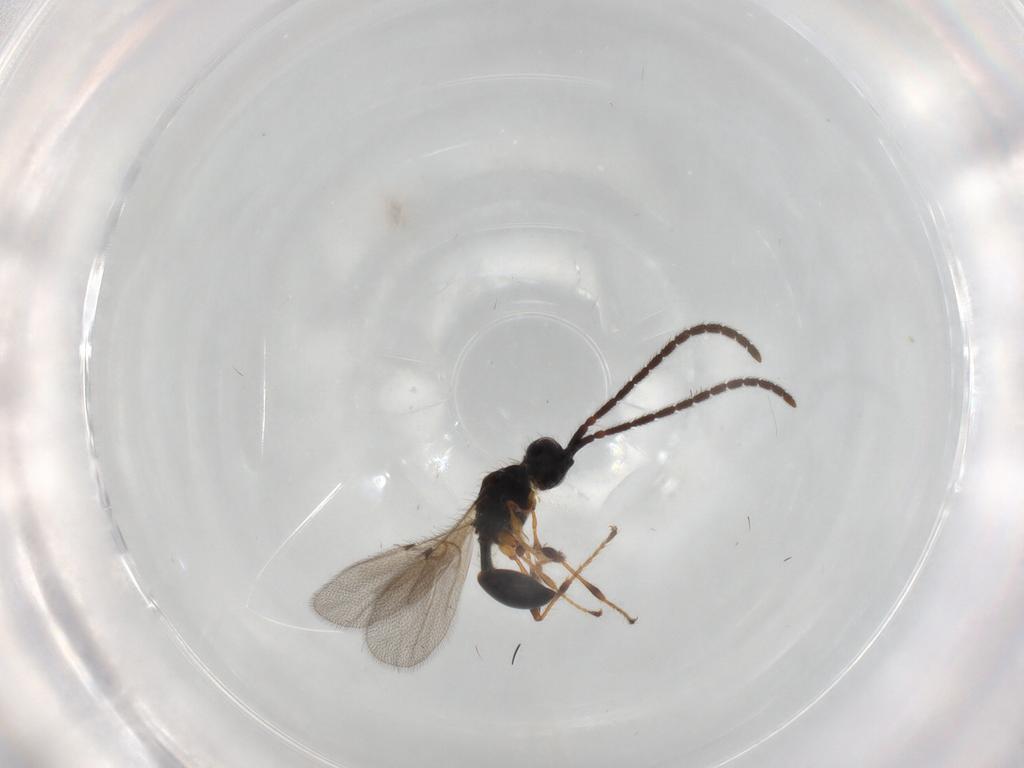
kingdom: Animalia
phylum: Arthropoda
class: Insecta
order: Hymenoptera
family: Diapriidae
